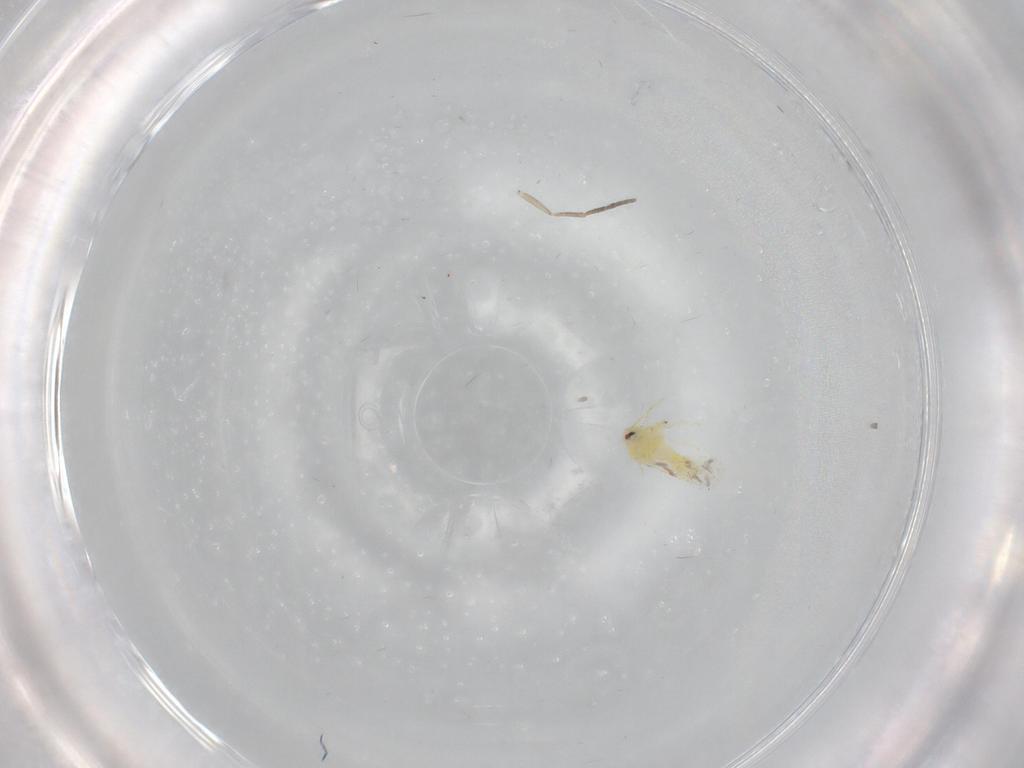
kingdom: Animalia
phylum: Arthropoda
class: Insecta
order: Hemiptera
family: Aleyrodidae
